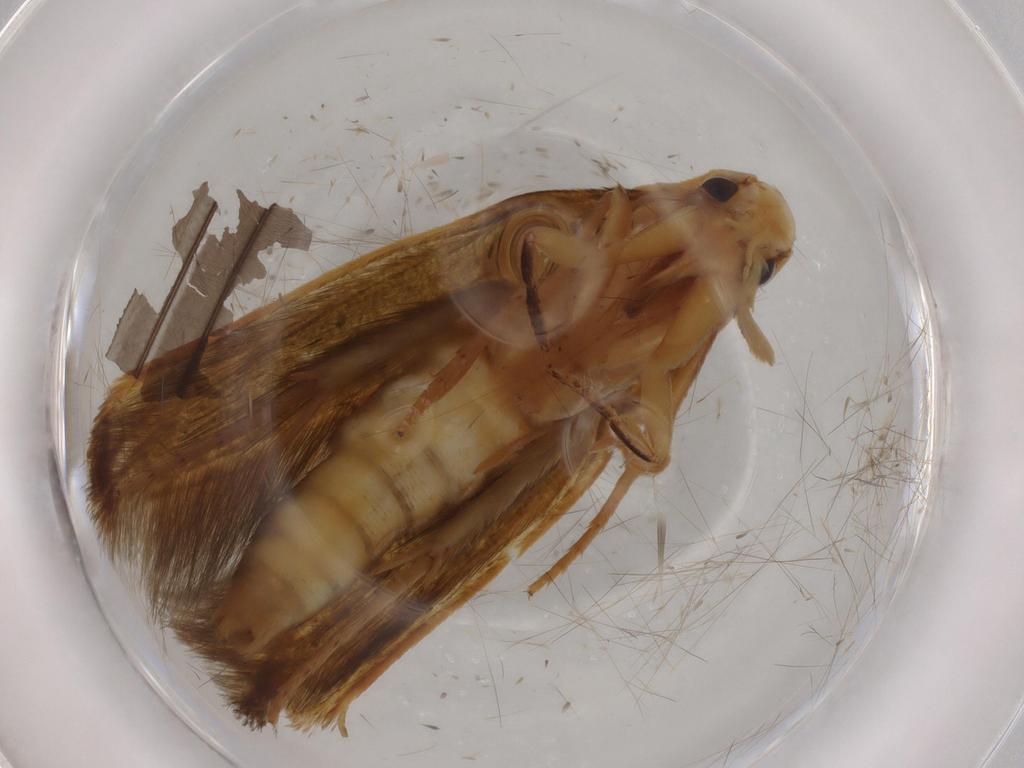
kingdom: Animalia
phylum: Arthropoda
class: Insecta
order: Lepidoptera
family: Tineidae
